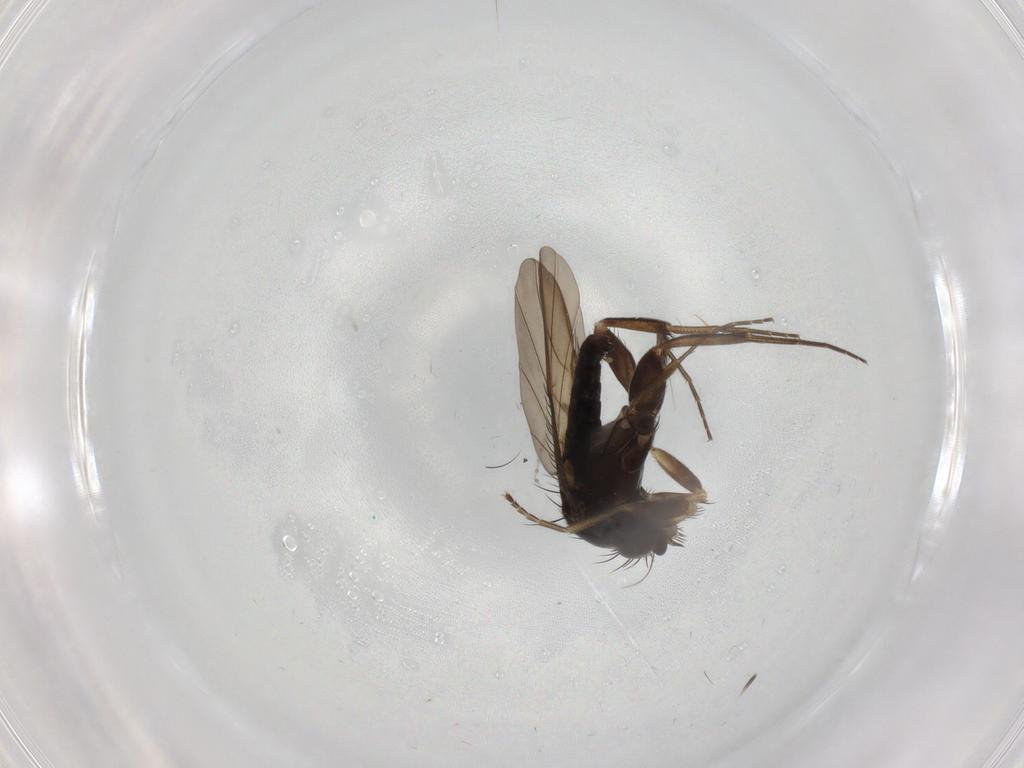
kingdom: Animalia
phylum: Arthropoda
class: Insecta
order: Diptera
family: Phoridae
